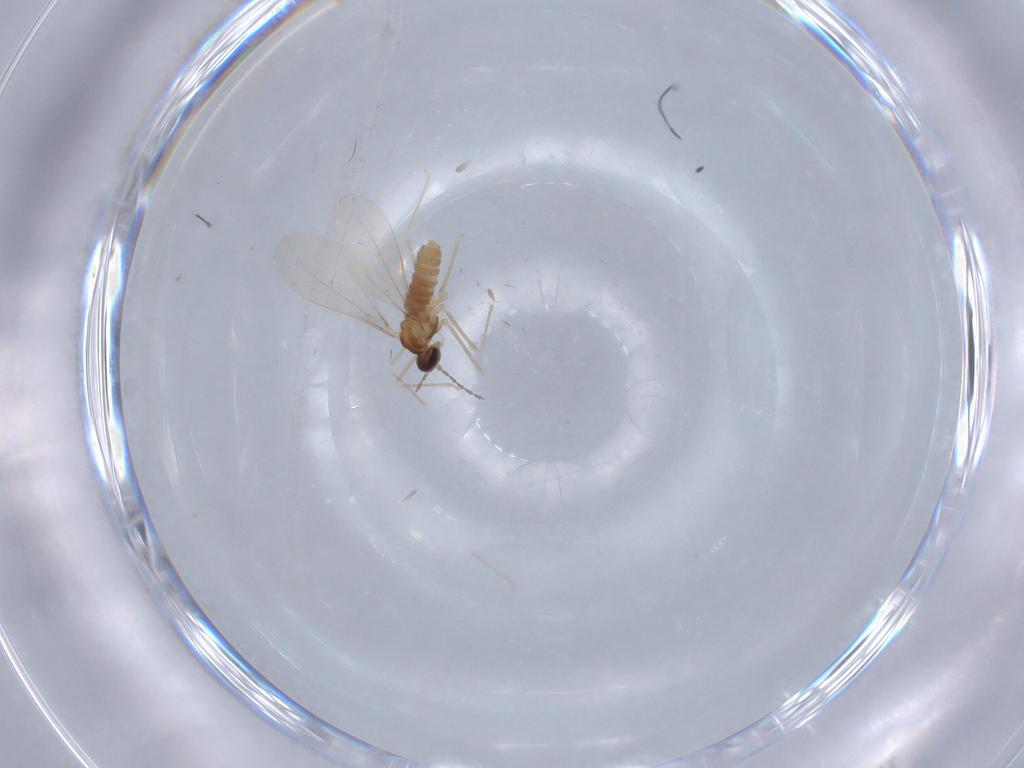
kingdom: Animalia
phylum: Arthropoda
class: Insecta
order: Diptera
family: Cecidomyiidae
